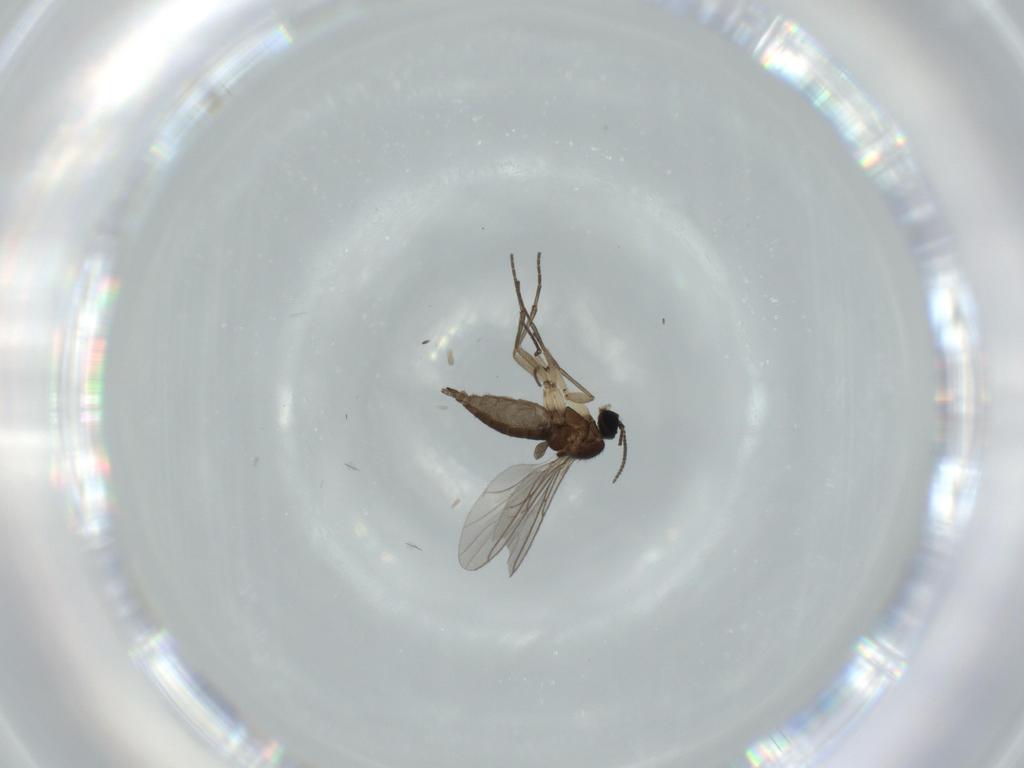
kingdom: Animalia
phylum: Arthropoda
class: Insecta
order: Diptera
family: Sciaridae
